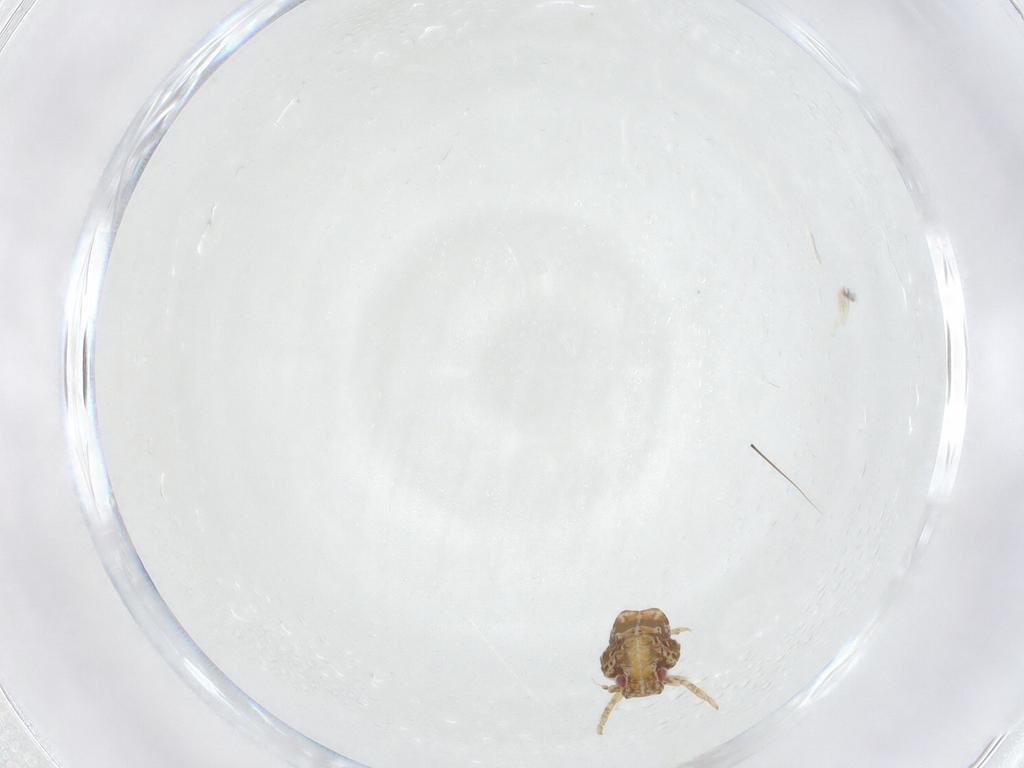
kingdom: Animalia
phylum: Arthropoda
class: Insecta
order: Hemiptera
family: Flatidae
